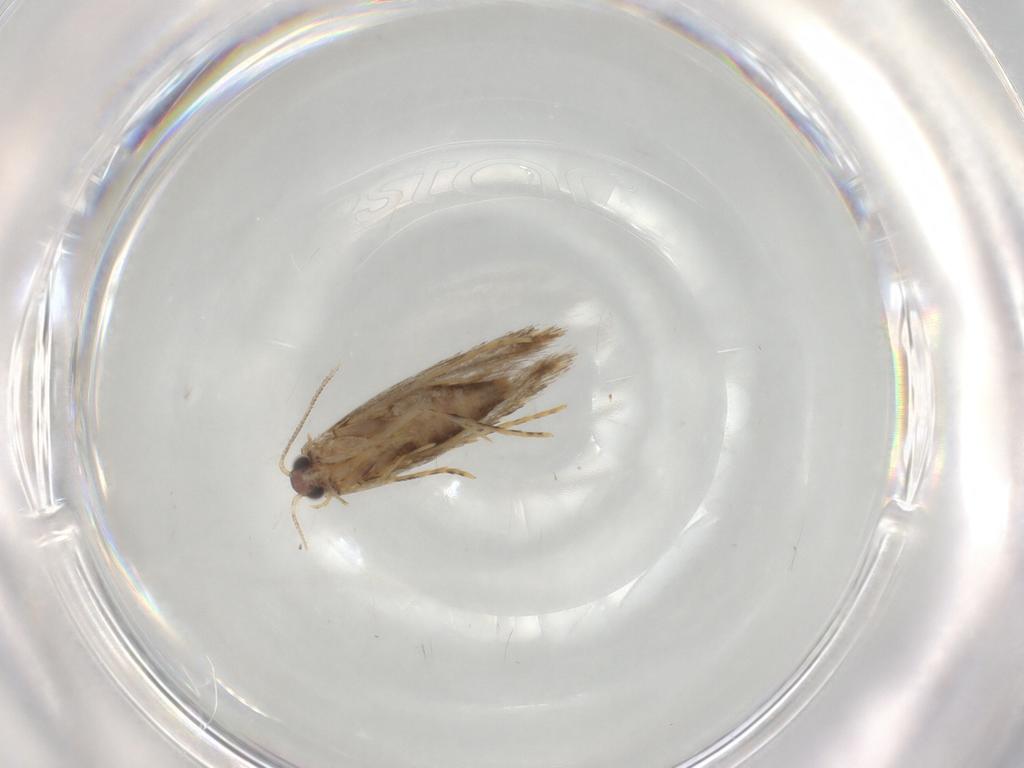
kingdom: Animalia
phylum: Arthropoda
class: Insecta
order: Lepidoptera
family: Tineidae
